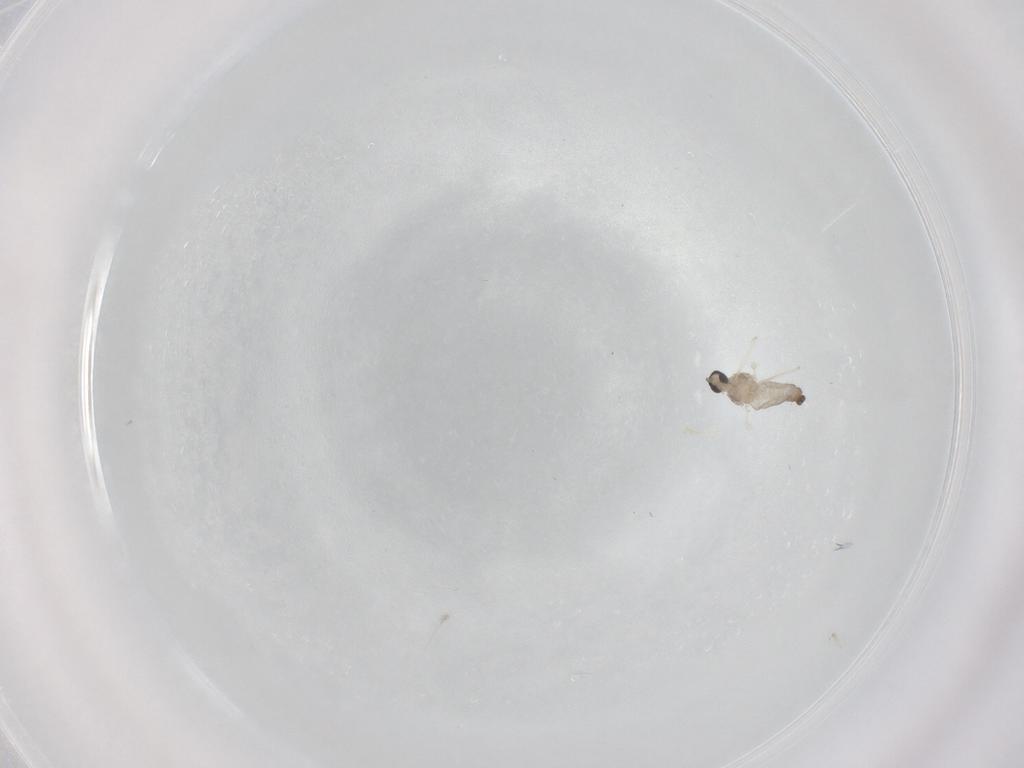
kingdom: Animalia
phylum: Arthropoda
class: Insecta
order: Diptera
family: Cecidomyiidae
